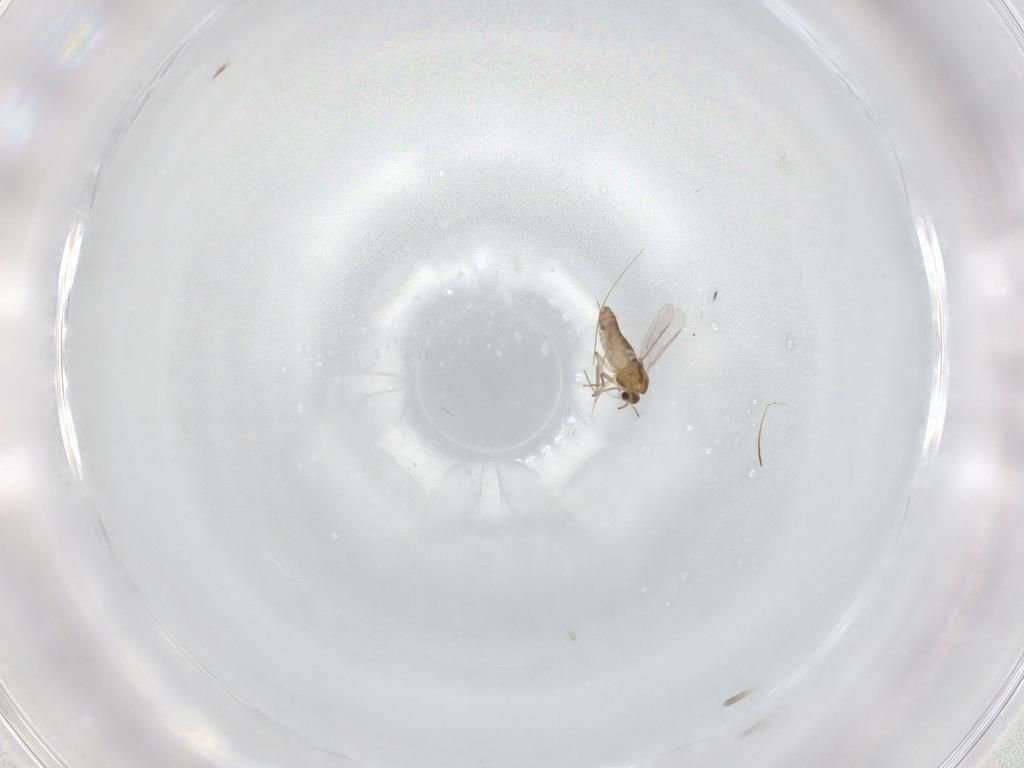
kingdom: Animalia
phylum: Arthropoda
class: Insecta
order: Diptera
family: Chironomidae
